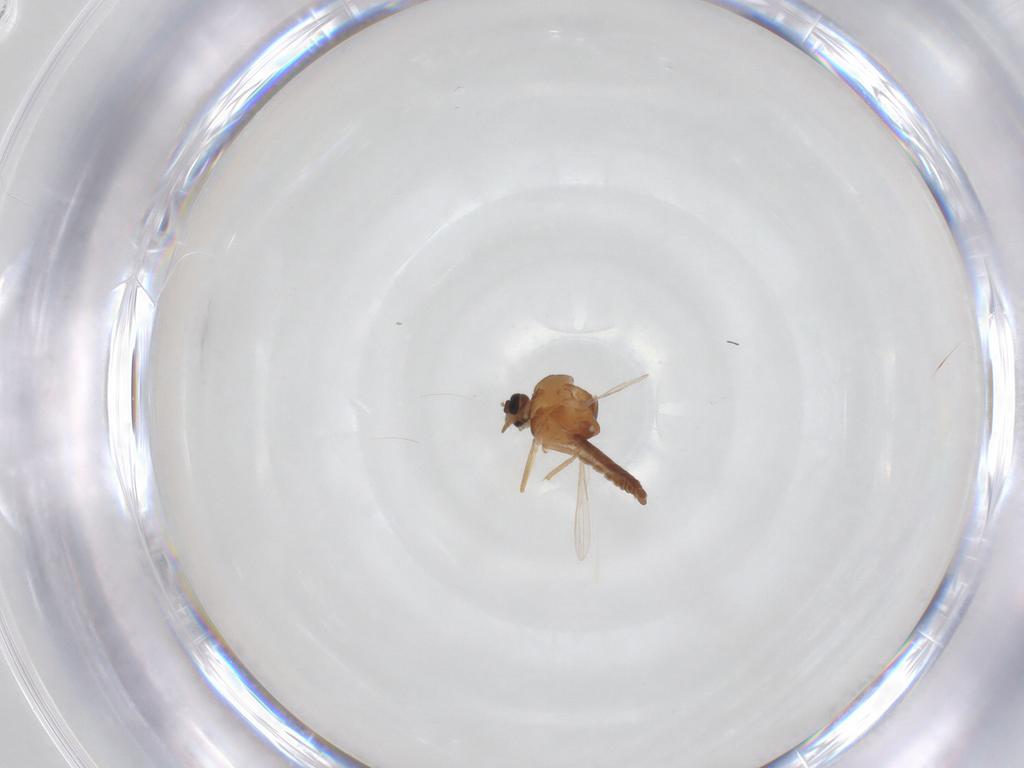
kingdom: Animalia
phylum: Arthropoda
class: Insecta
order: Diptera
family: Ceratopogonidae
